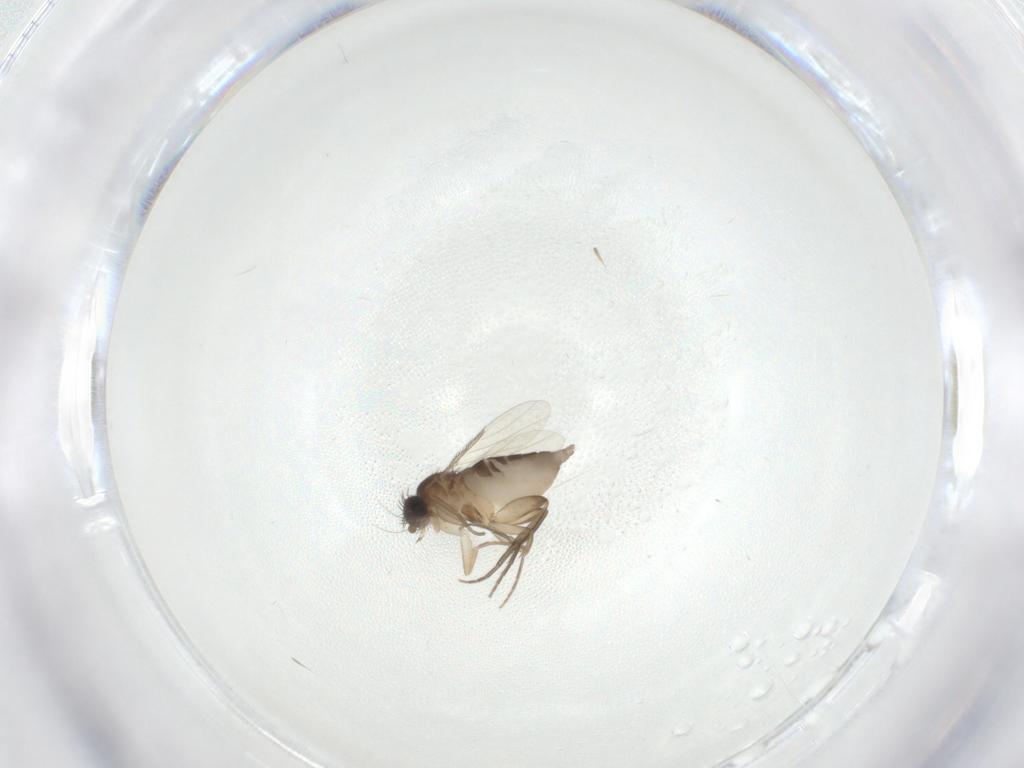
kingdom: Animalia
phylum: Arthropoda
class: Insecta
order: Diptera
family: Phoridae
